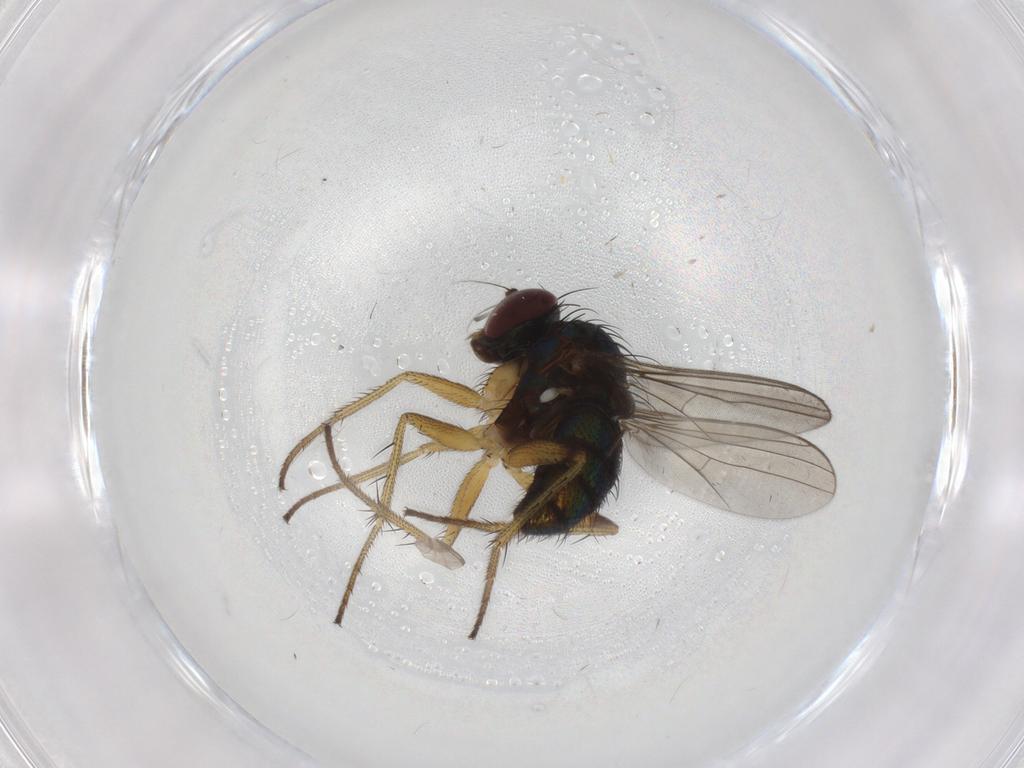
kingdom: Animalia
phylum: Arthropoda
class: Insecta
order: Diptera
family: Dolichopodidae
